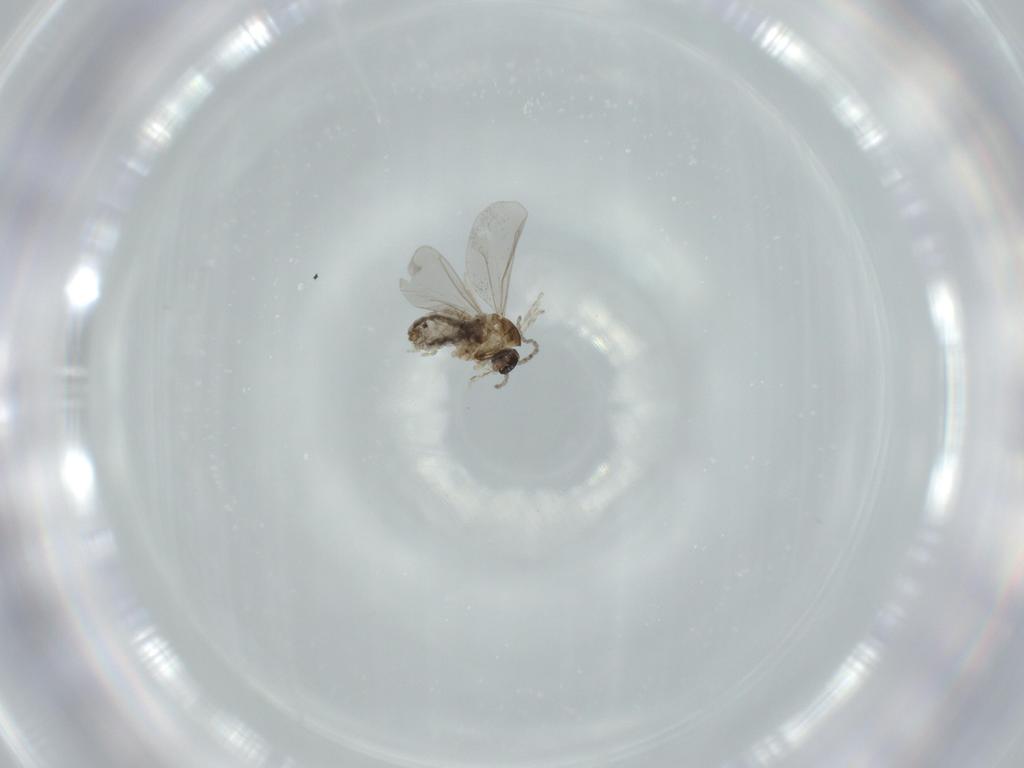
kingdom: Animalia
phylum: Arthropoda
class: Insecta
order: Diptera
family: Cecidomyiidae
